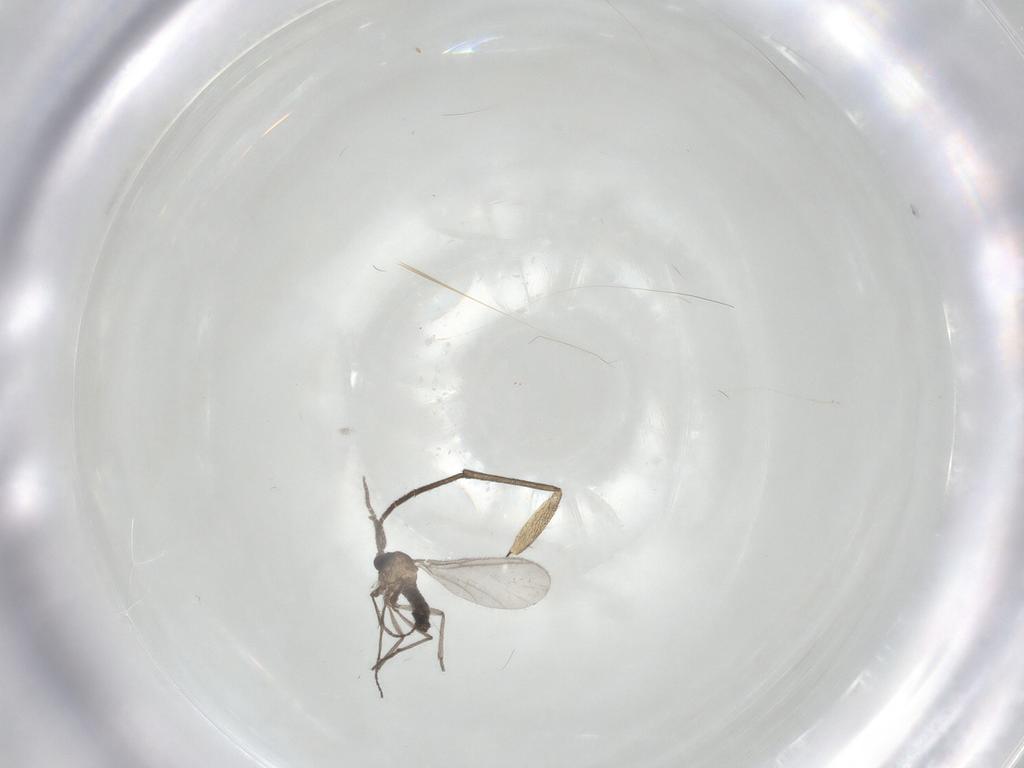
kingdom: Animalia
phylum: Arthropoda
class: Insecta
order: Diptera
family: Sciaridae
